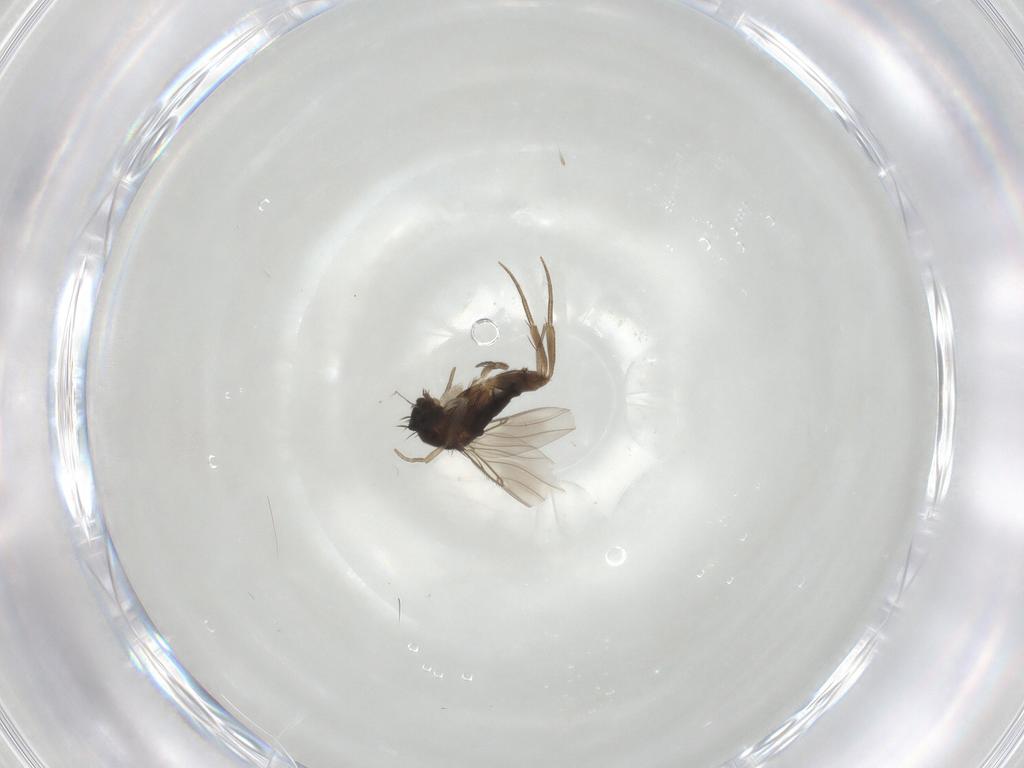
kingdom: Animalia
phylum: Arthropoda
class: Insecta
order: Diptera
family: Phoridae
